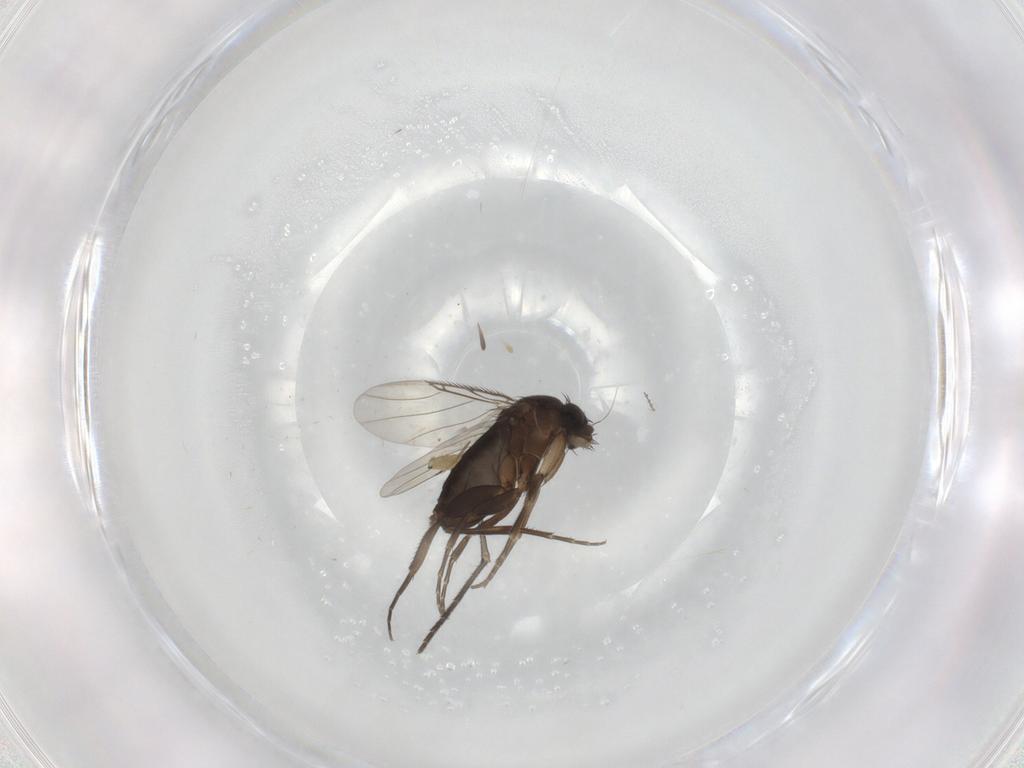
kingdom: Animalia
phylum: Arthropoda
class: Insecta
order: Diptera
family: Phoridae
